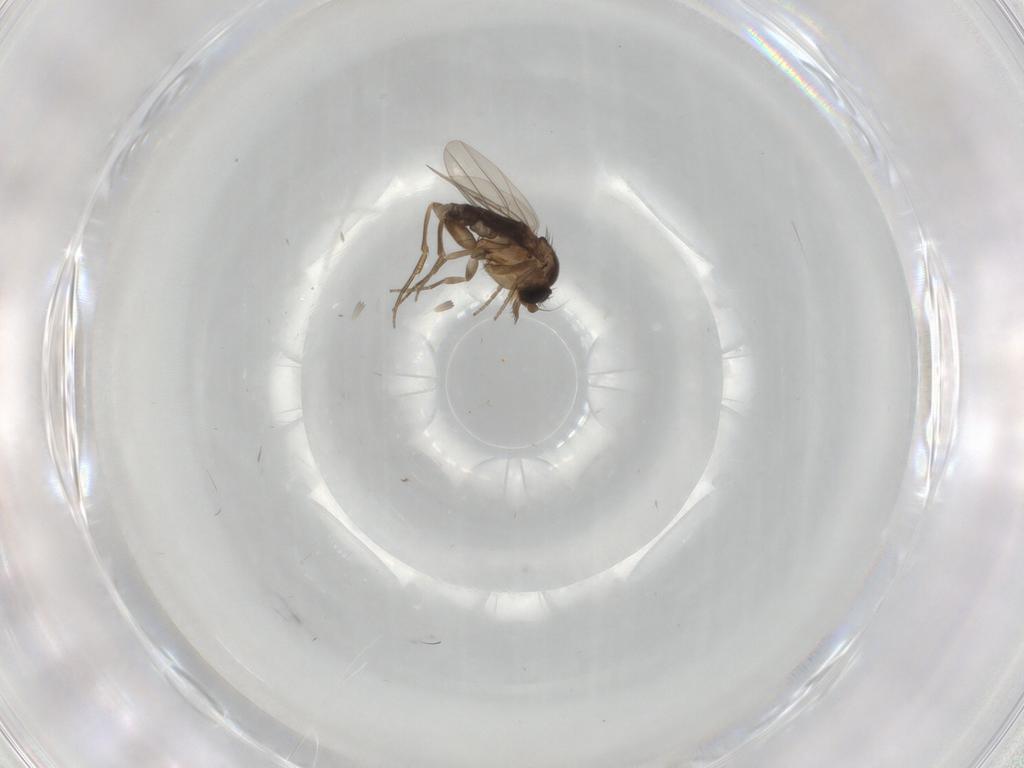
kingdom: Animalia
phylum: Arthropoda
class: Insecta
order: Diptera
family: Phoridae
